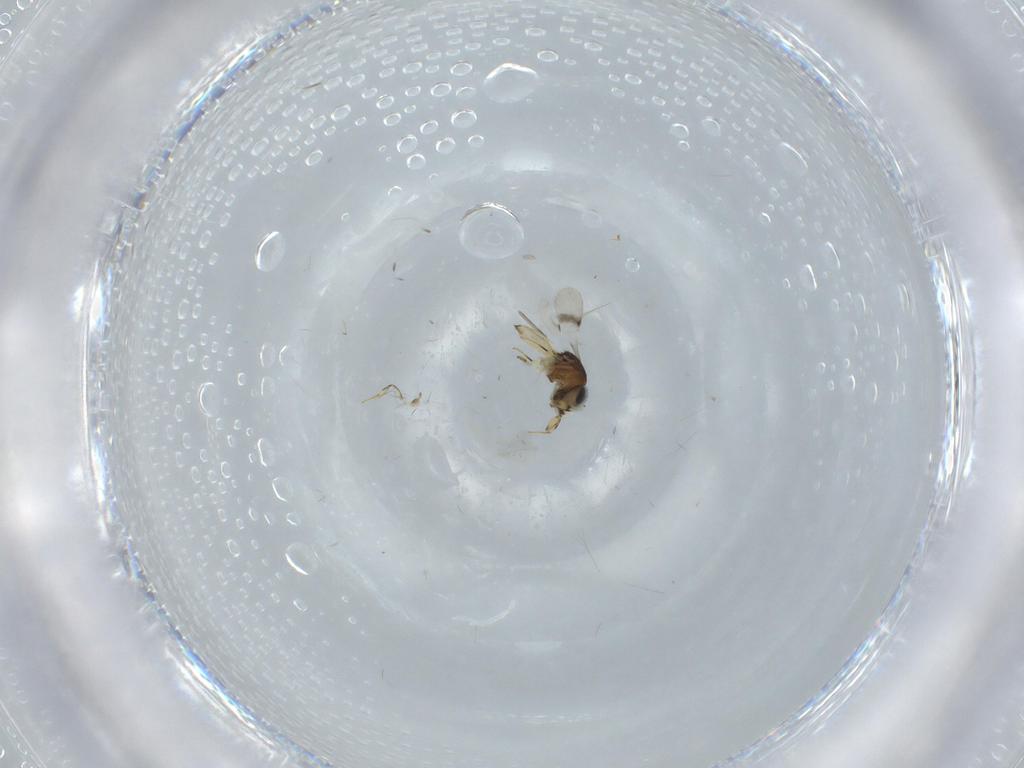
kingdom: Animalia
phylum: Arthropoda
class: Insecta
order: Hymenoptera
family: Scelionidae
